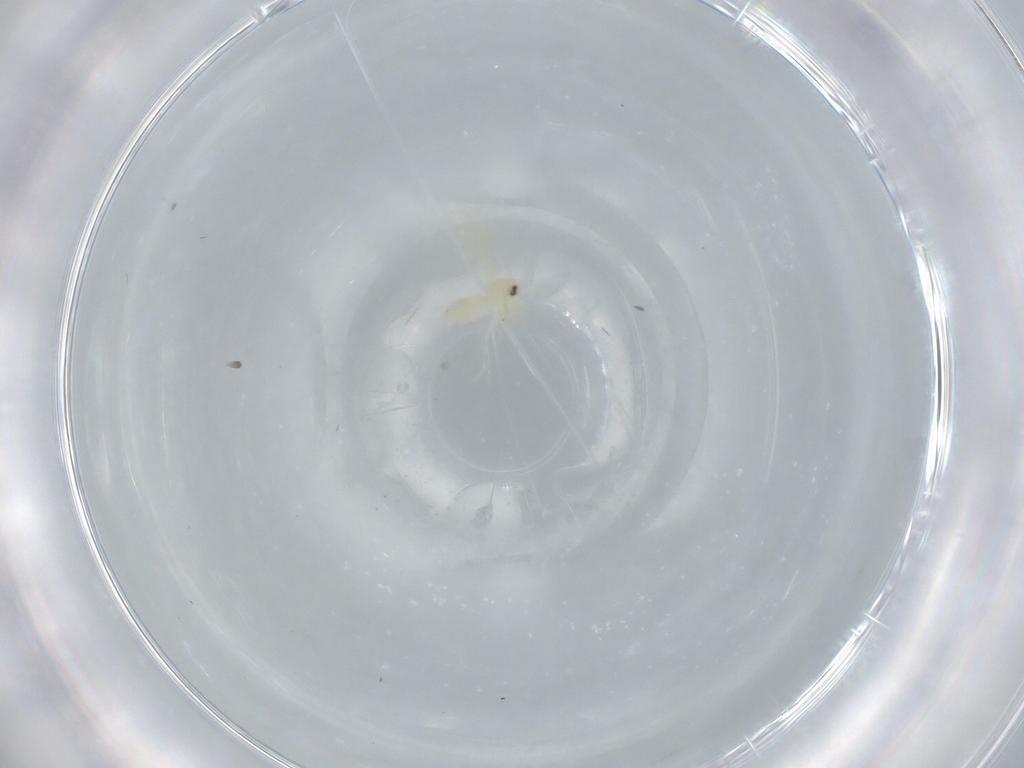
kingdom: Animalia
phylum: Arthropoda
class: Insecta
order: Hemiptera
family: Aleyrodidae
